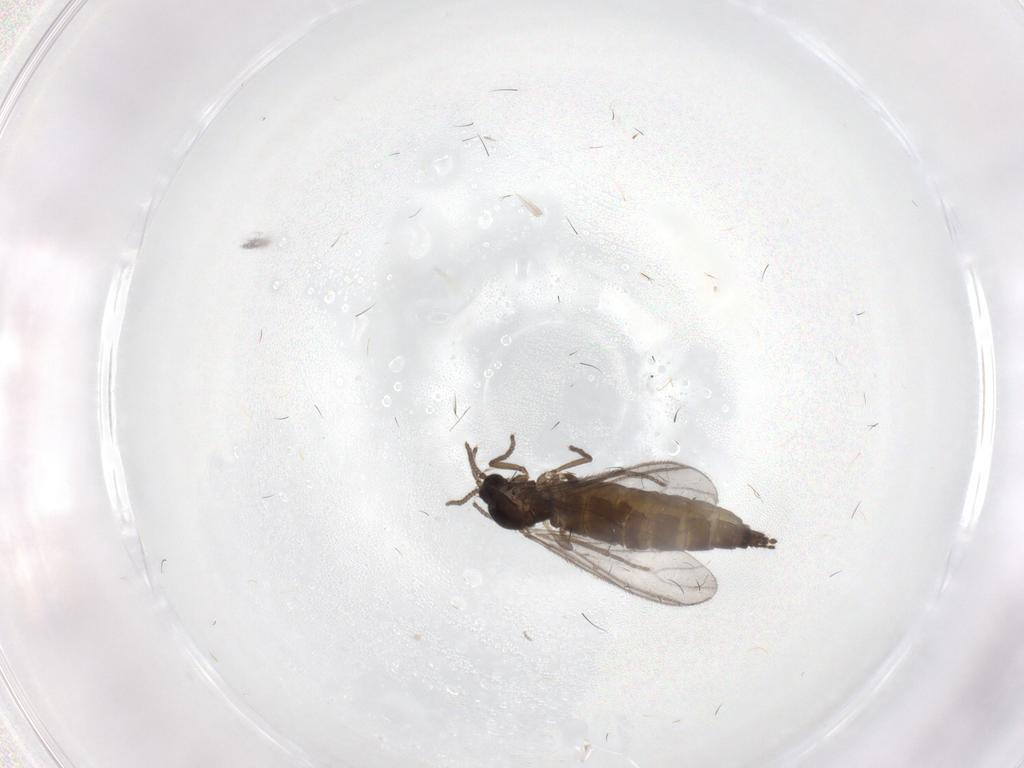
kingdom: Animalia
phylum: Arthropoda
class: Insecta
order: Diptera
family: Sciaridae
